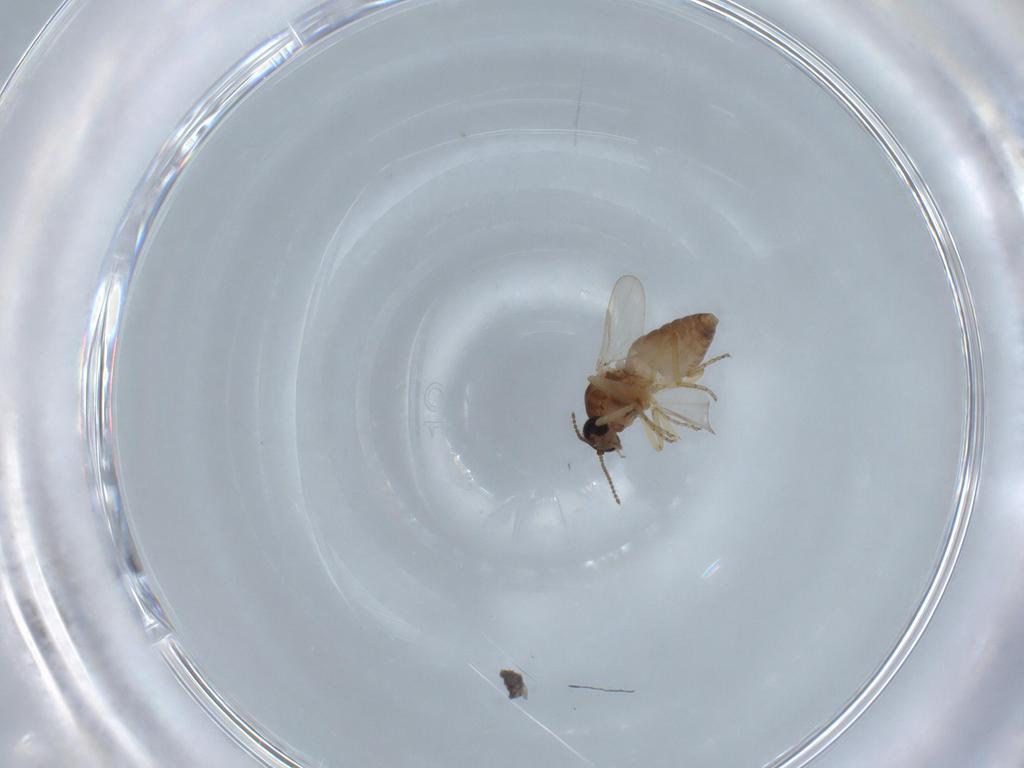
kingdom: Animalia
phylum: Arthropoda
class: Insecta
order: Diptera
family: Ceratopogonidae
